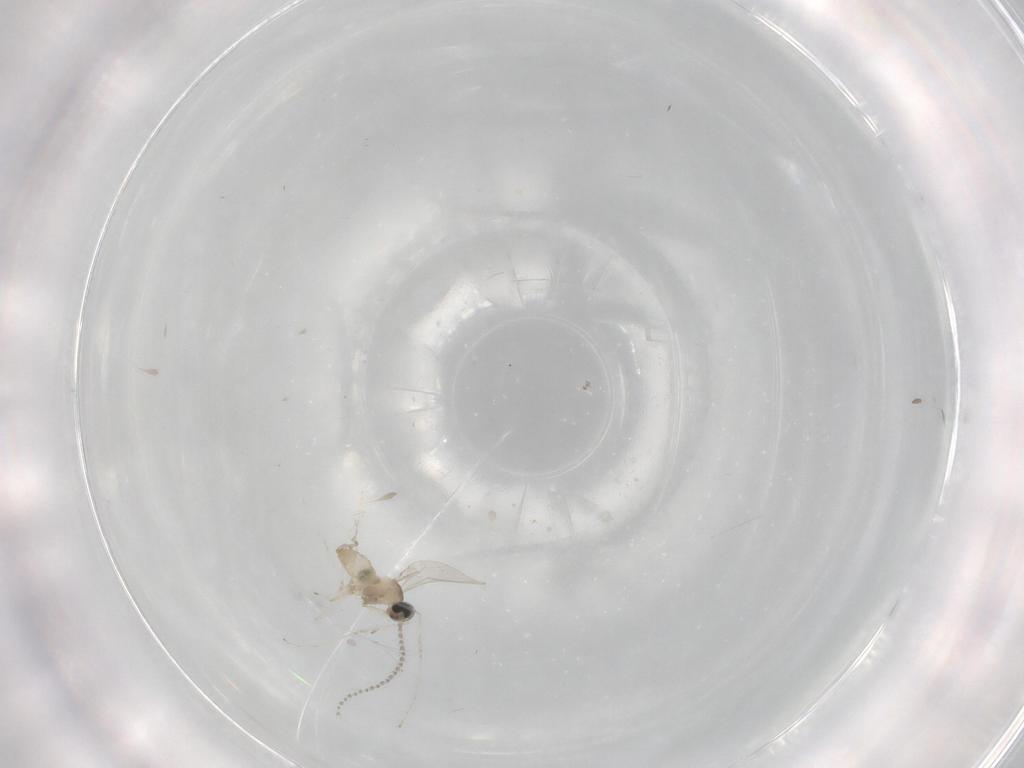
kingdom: Animalia
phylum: Arthropoda
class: Insecta
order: Diptera
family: Cecidomyiidae
